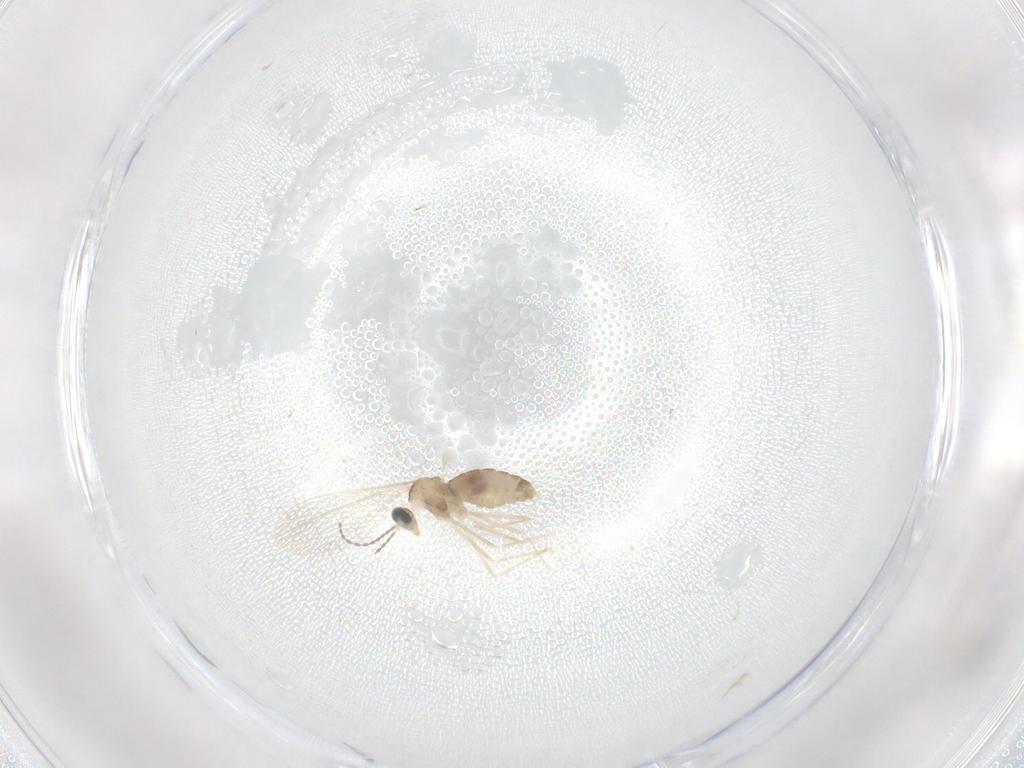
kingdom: Animalia
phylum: Arthropoda
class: Insecta
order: Diptera
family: Cecidomyiidae
